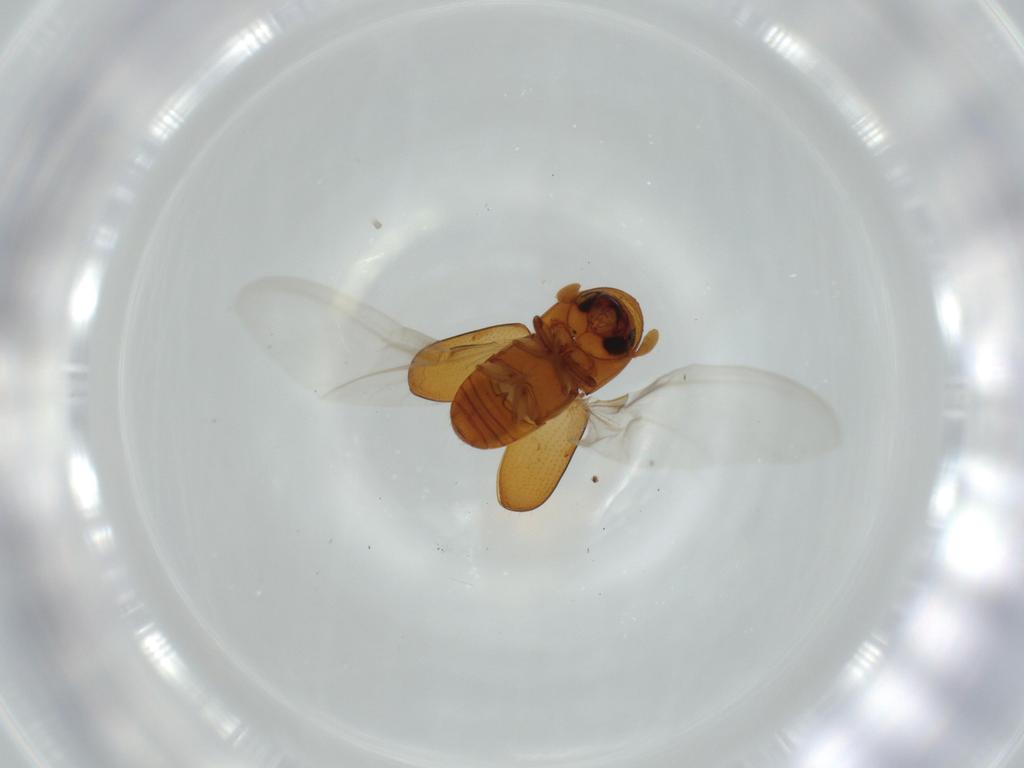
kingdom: Animalia
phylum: Arthropoda
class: Insecta
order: Coleoptera
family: Curculionidae
